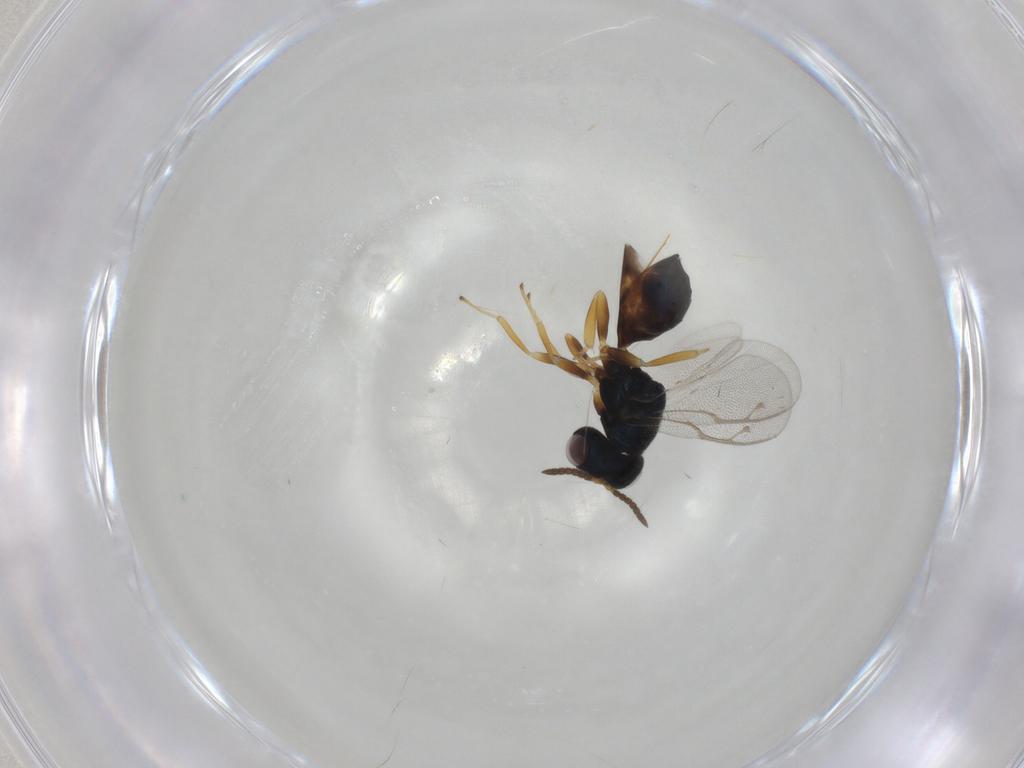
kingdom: Animalia
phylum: Arthropoda
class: Insecta
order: Hymenoptera
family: Pteromalidae
